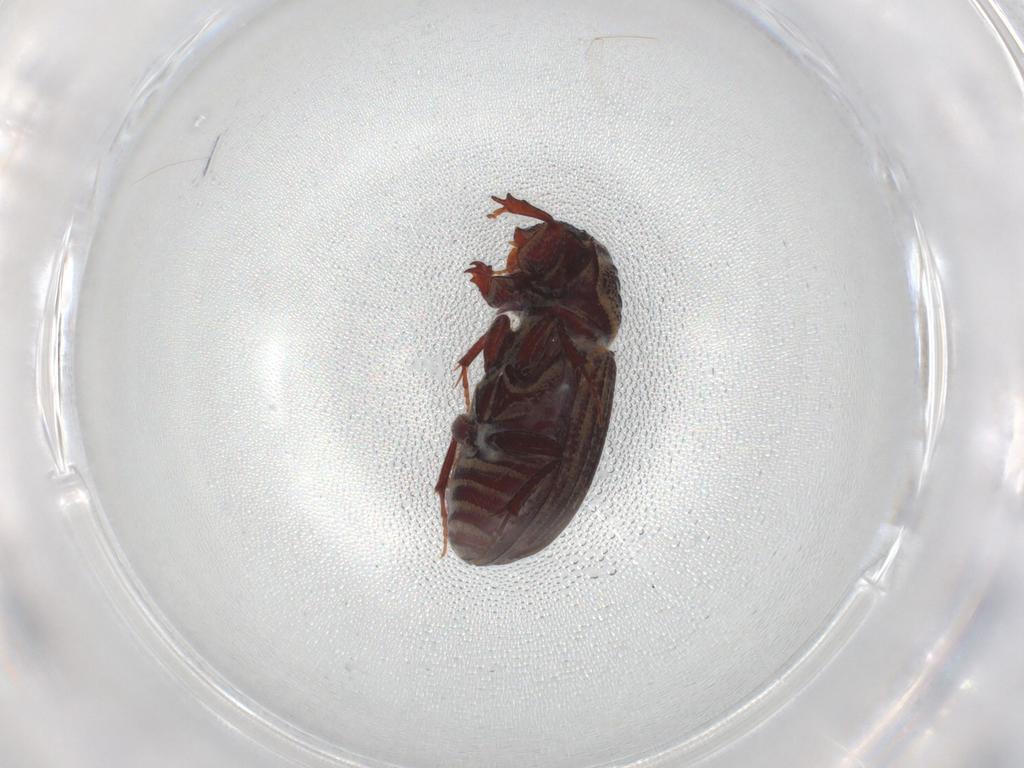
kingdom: Animalia
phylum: Arthropoda
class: Insecta
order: Coleoptera
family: Scarabaeidae
